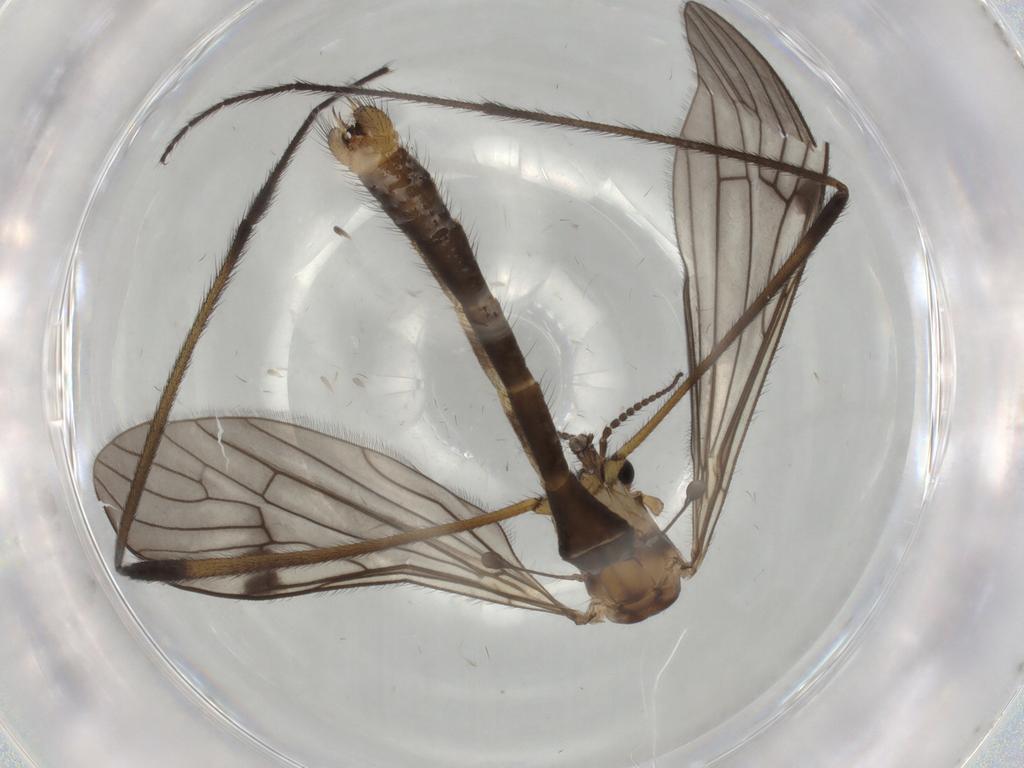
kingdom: Animalia
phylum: Arthropoda
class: Insecta
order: Diptera
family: Limoniidae
